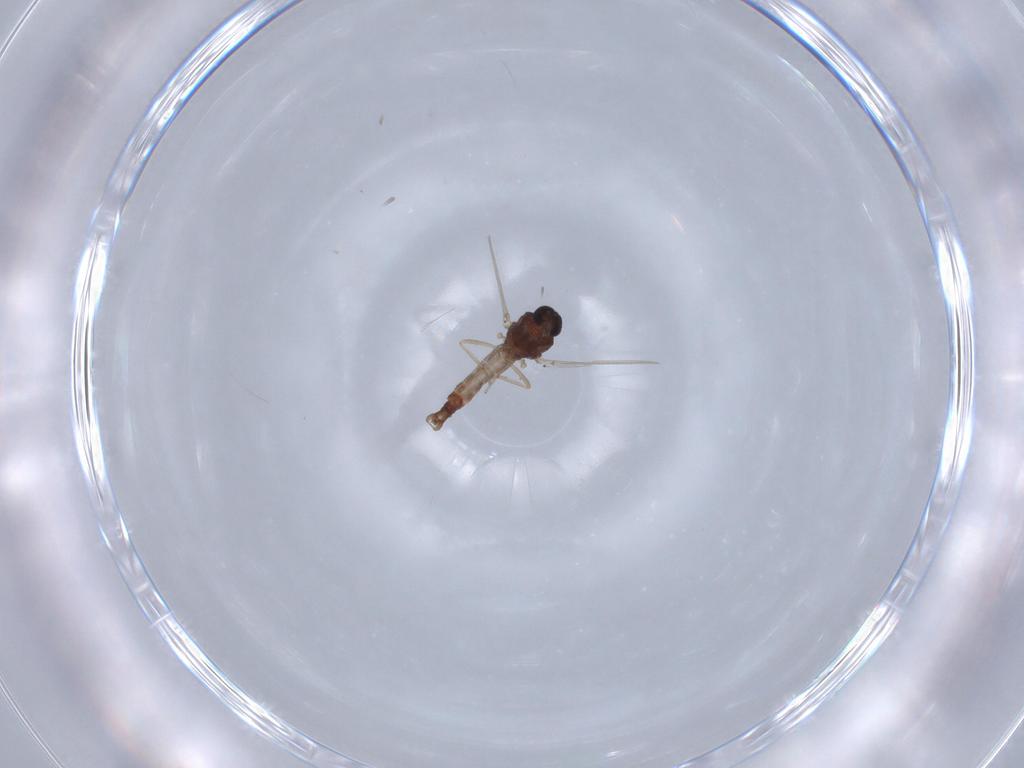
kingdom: Animalia
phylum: Arthropoda
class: Insecta
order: Diptera
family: Ceratopogonidae
